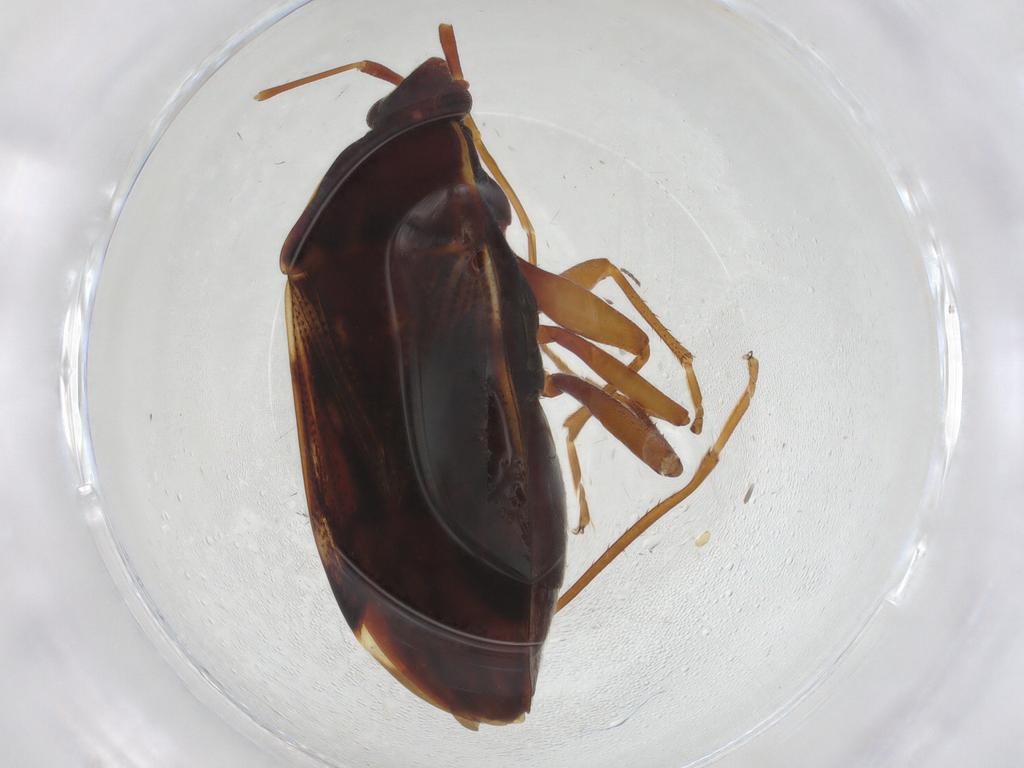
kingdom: Animalia
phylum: Arthropoda
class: Insecta
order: Hemiptera
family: Rhyparochromidae
